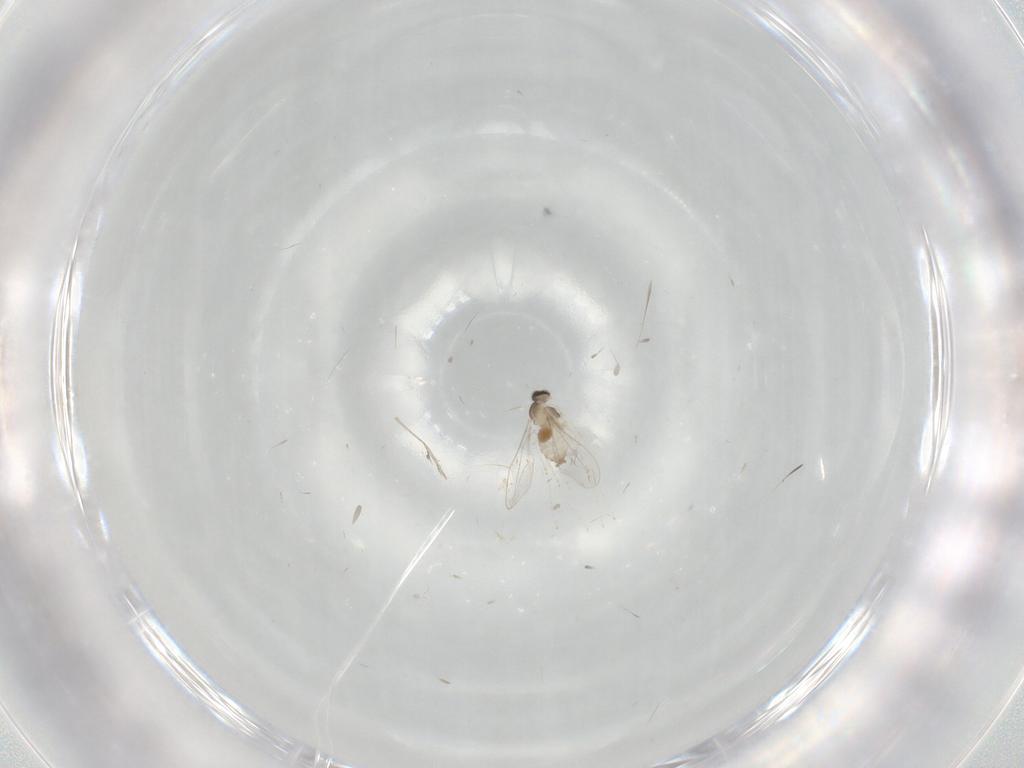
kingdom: Animalia
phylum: Arthropoda
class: Insecta
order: Diptera
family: Cecidomyiidae
